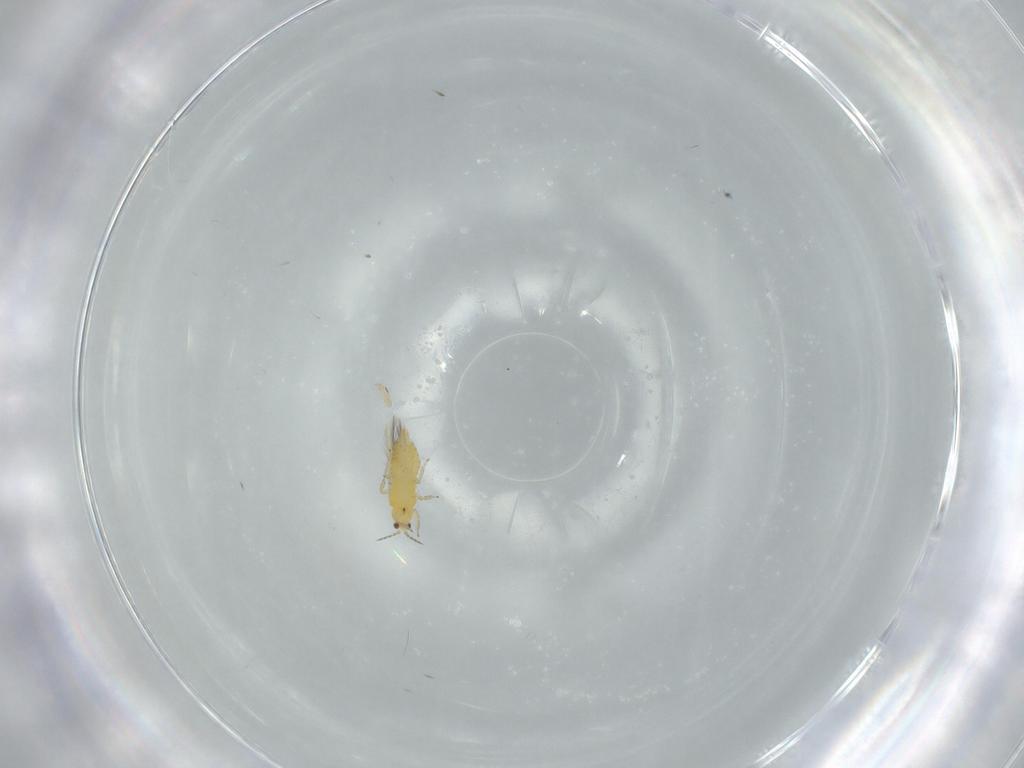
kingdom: Animalia
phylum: Arthropoda
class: Insecta
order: Thysanoptera
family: Thripidae
